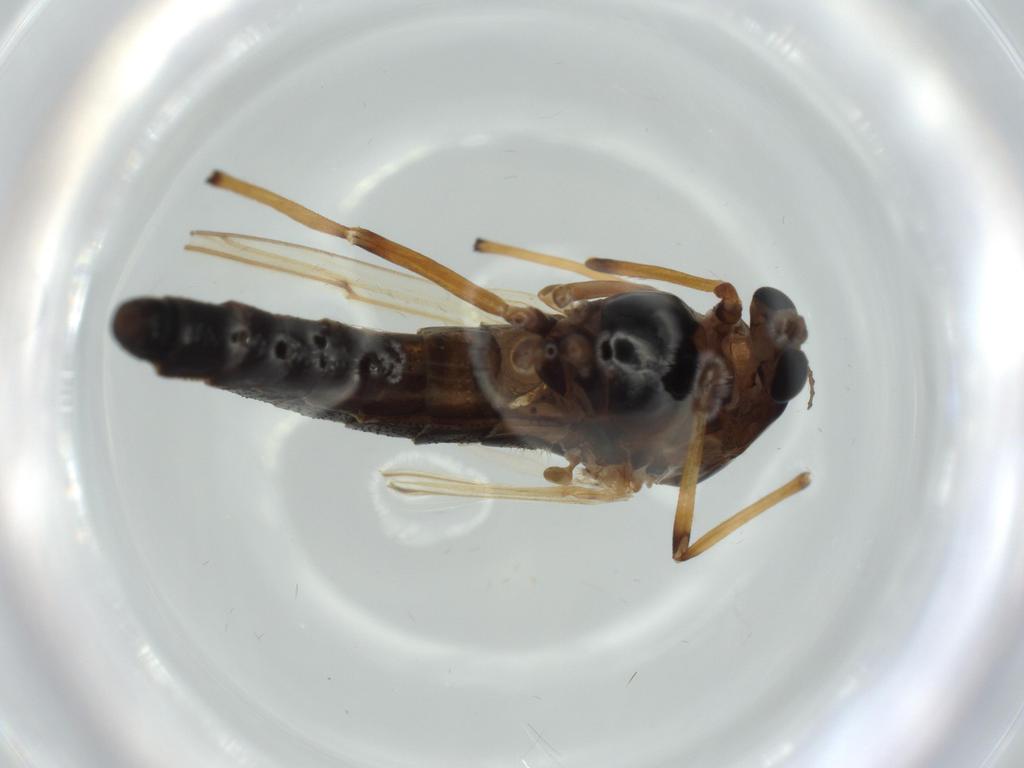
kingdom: Animalia
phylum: Arthropoda
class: Insecta
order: Diptera
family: Chironomidae
